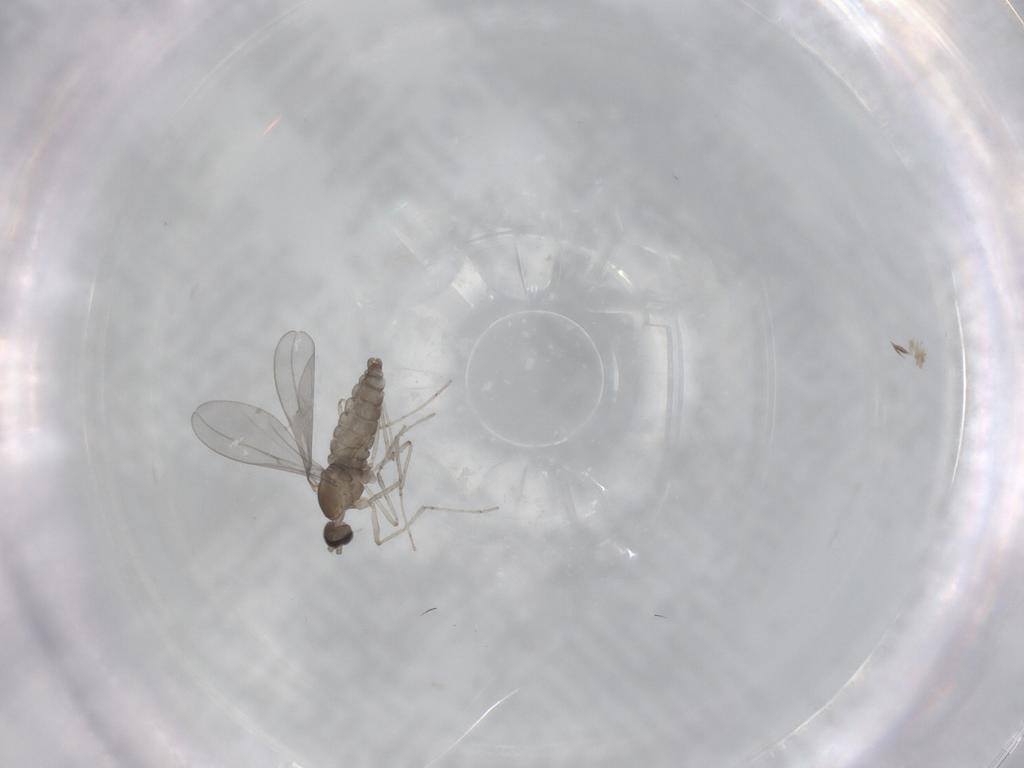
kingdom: Animalia
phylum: Arthropoda
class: Insecta
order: Diptera
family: Dolichopodidae
